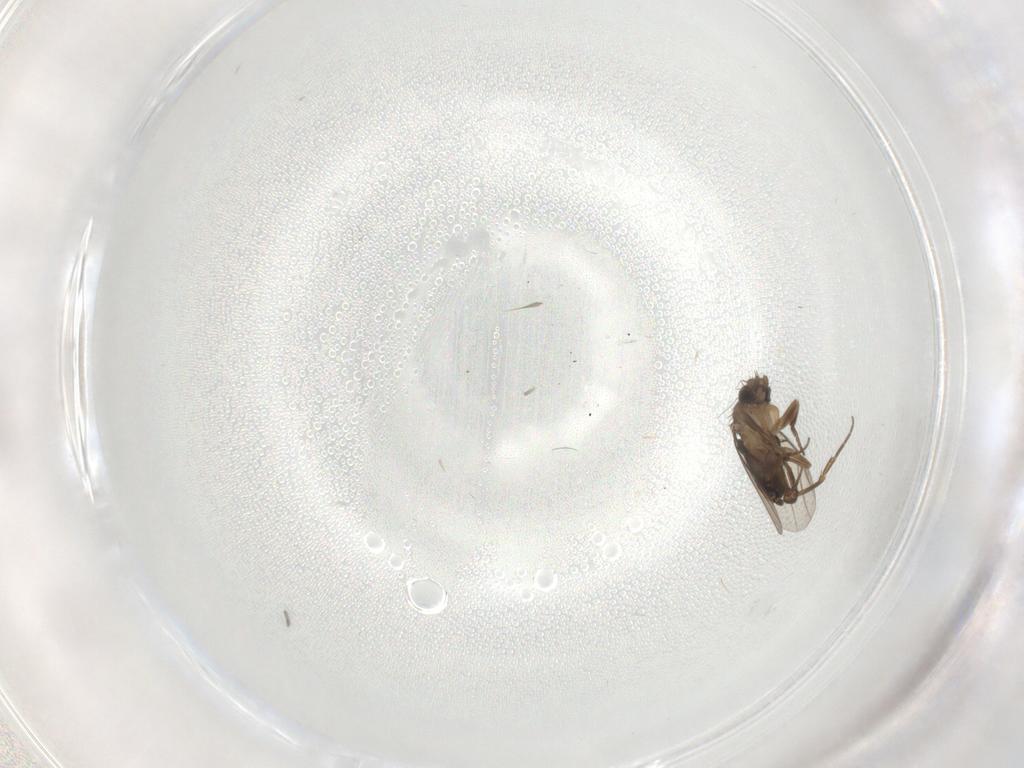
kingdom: Animalia
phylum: Arthropoda
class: Insecta
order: Diptera
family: Phoridae
